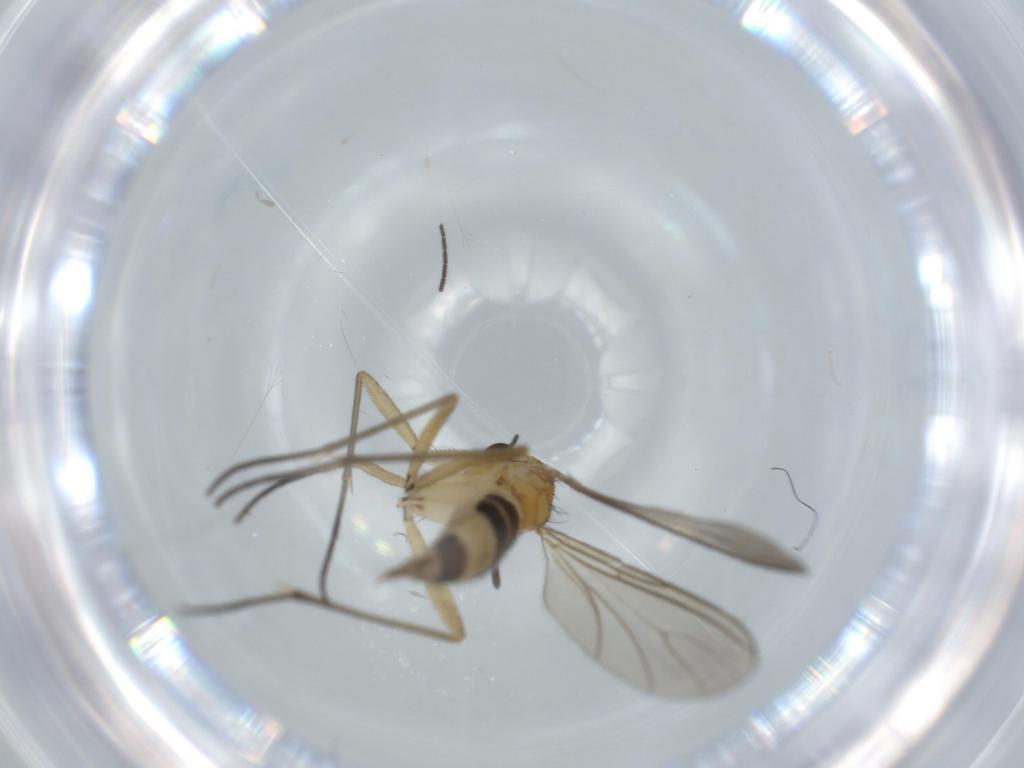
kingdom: Animalia
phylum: Arthropoda
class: Insecta
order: Diptera
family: Sciaridae
